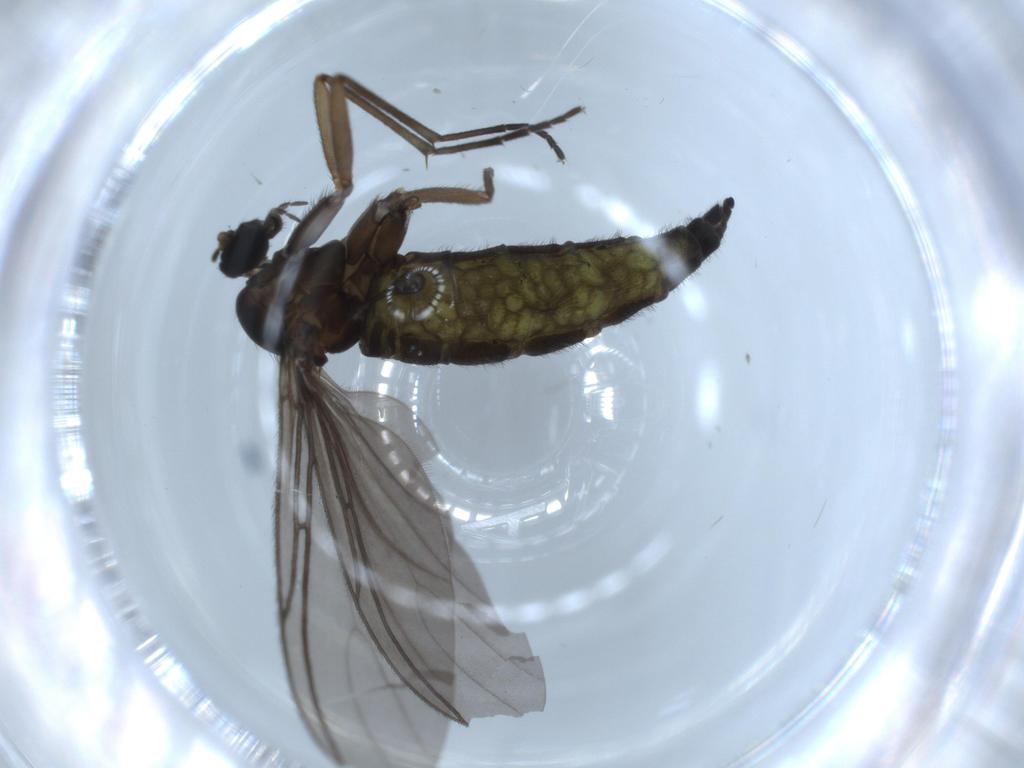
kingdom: Animalia
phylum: Arthropoda
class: Insecta
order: Diptera
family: Sciaridae
